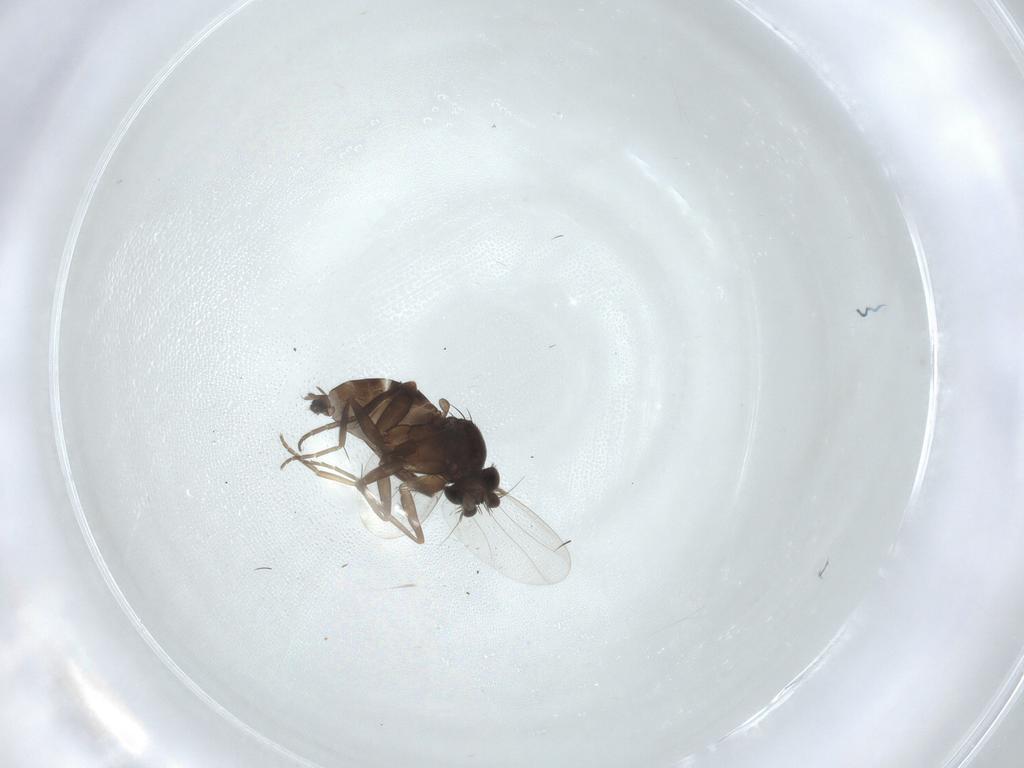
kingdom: Animalia
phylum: Arthropoda
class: Insecta
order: Diptera
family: Phoridae
